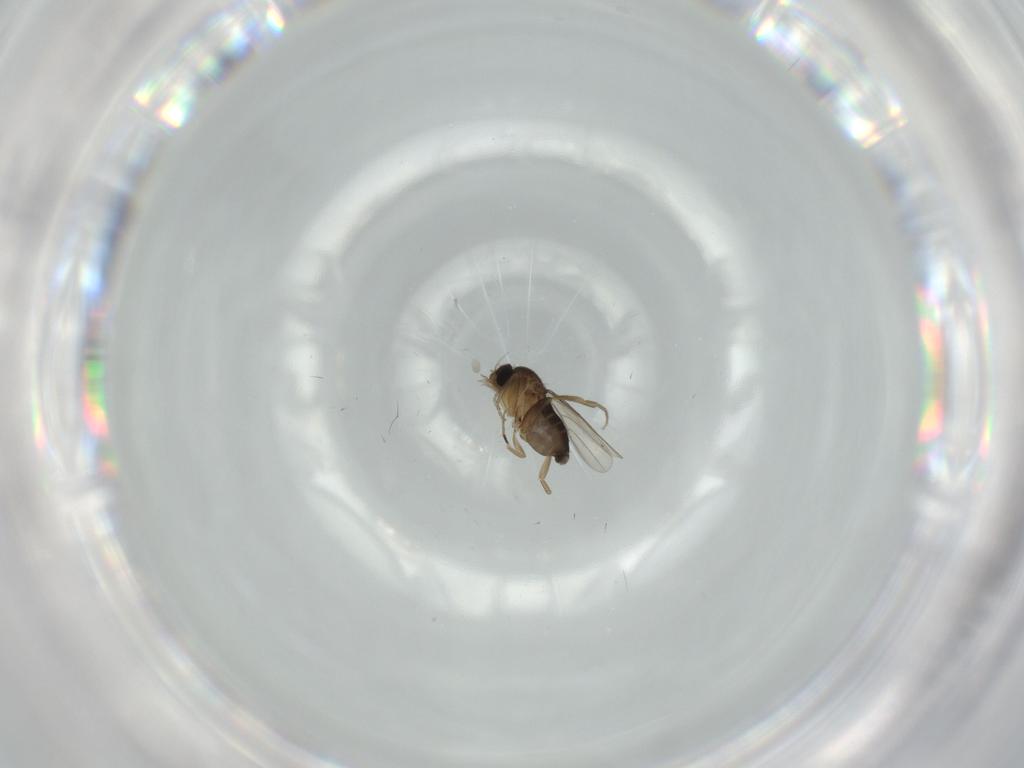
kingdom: Animalia
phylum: Arthropoda
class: Insecta
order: Diptera
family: Phoridae
